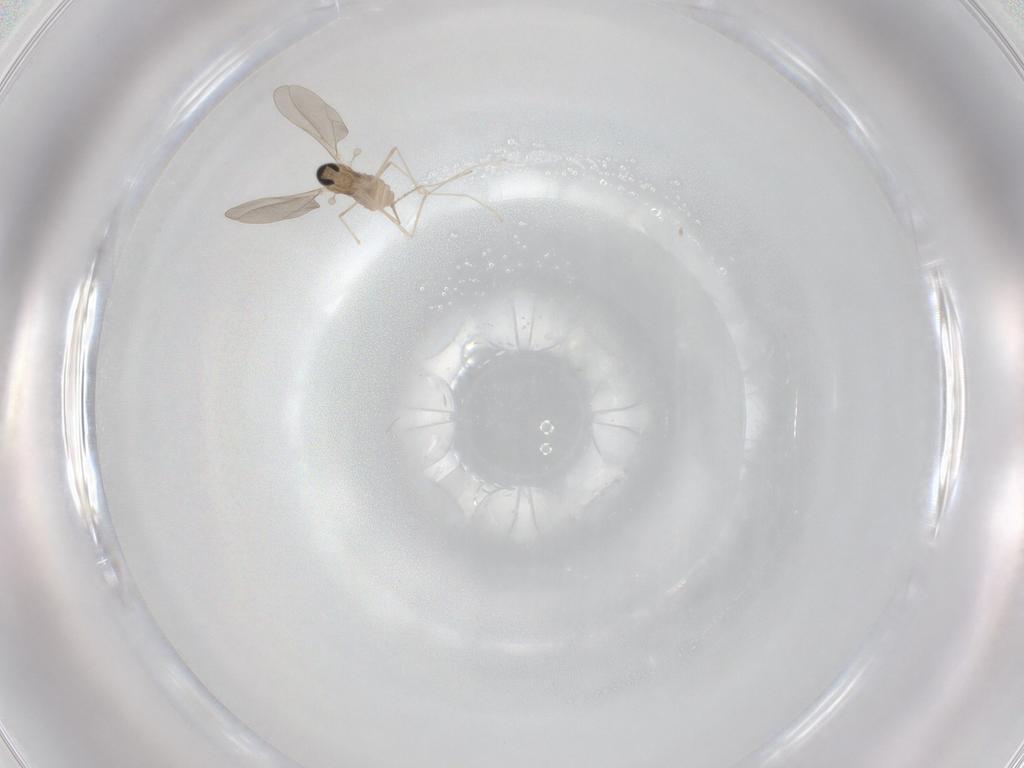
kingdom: Animalia
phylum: Arthropoda
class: Insecta
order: Diptera
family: Cecidomyiidae
